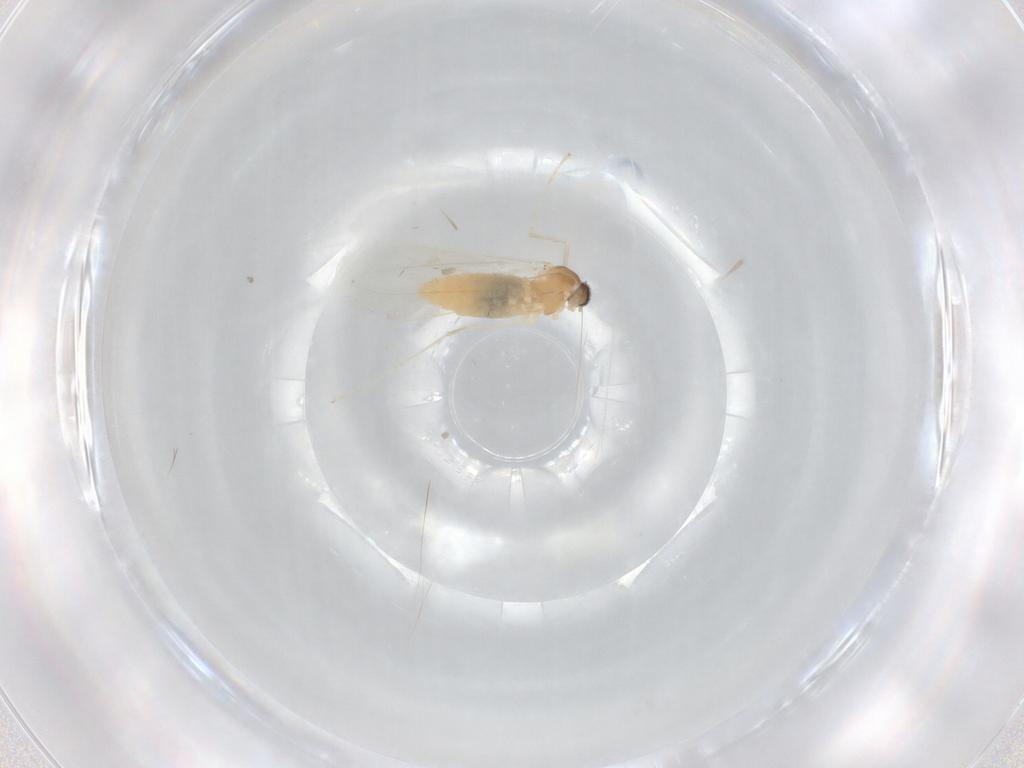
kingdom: Animalia
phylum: Arthropoda
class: Insecta
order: Diptera
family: Cecidomyiidae
